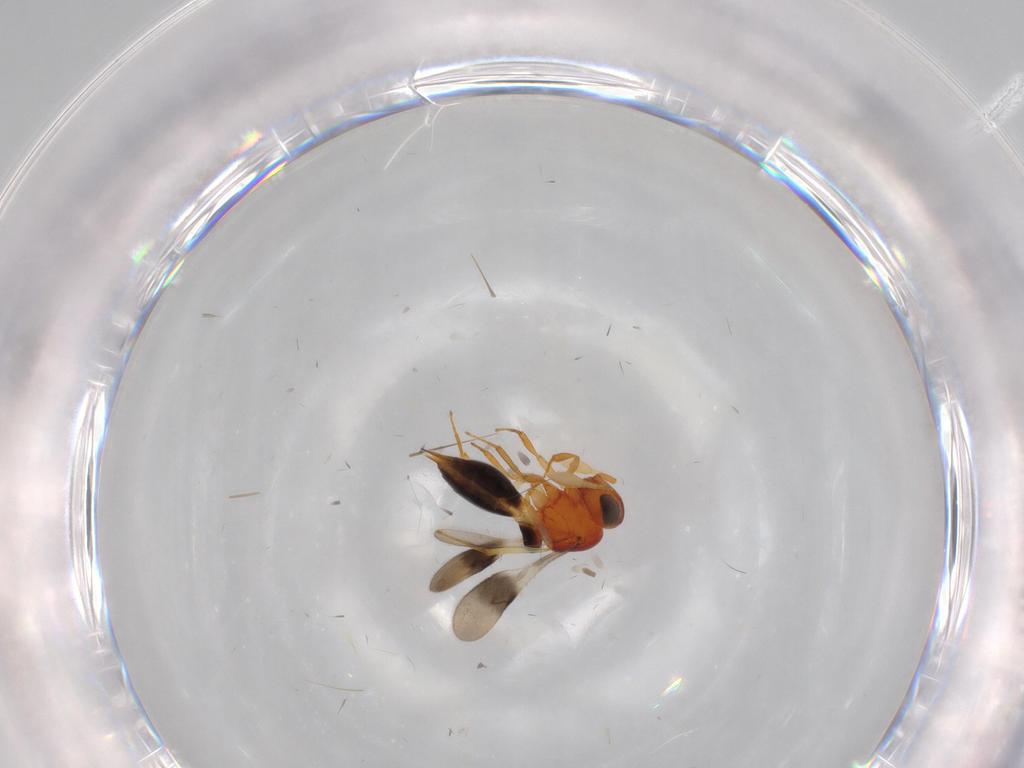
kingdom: Animalia
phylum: Arthropoda
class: Insecta
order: Hymenoptera
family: Scelionidae
